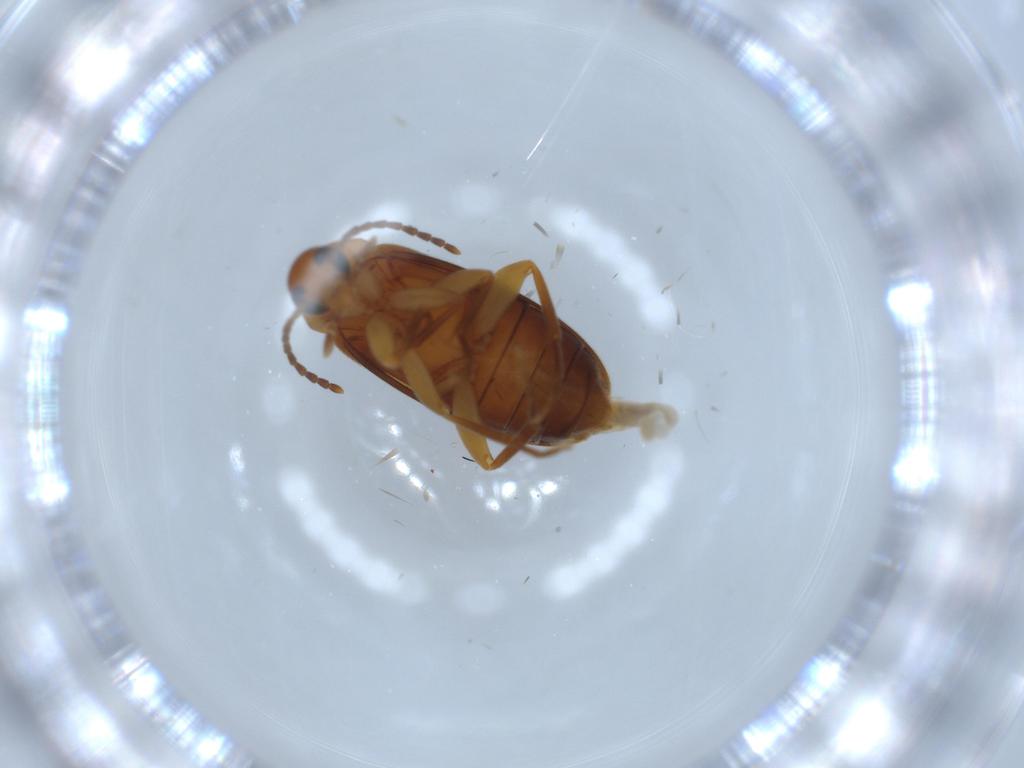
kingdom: Animalia
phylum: Arthropoda
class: Insecta
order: Coleoptera
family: Scraptiidae
